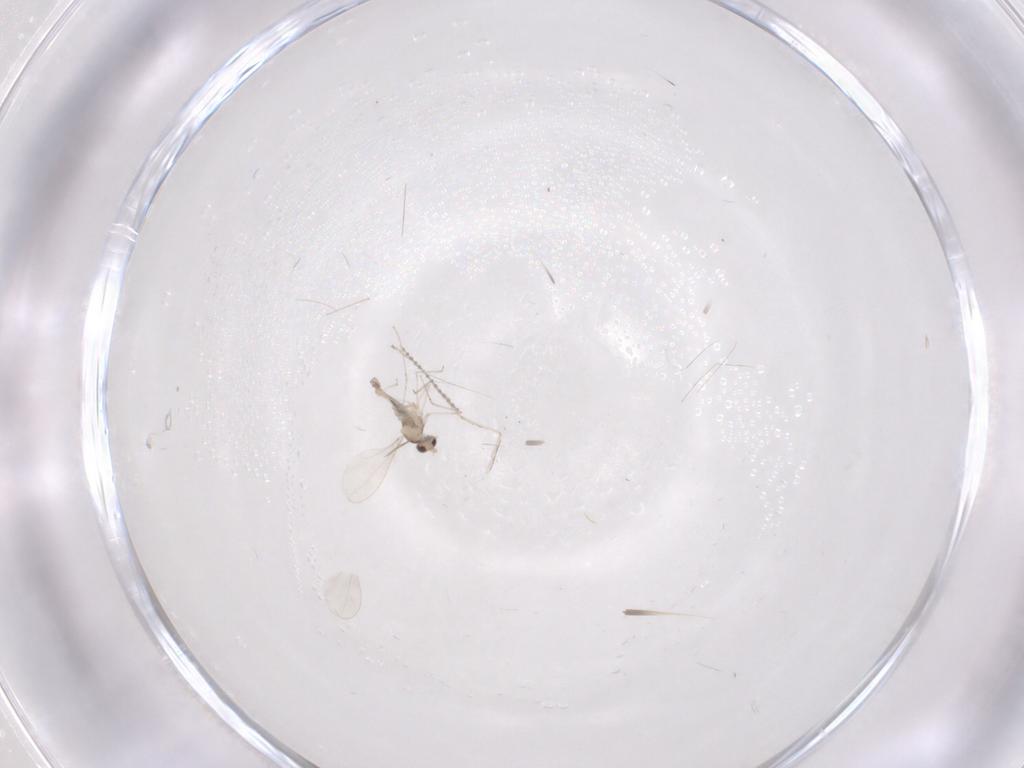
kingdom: Animalia
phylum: Arthropoda
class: Insecta
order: Diptera
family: Cecidomyiidae
